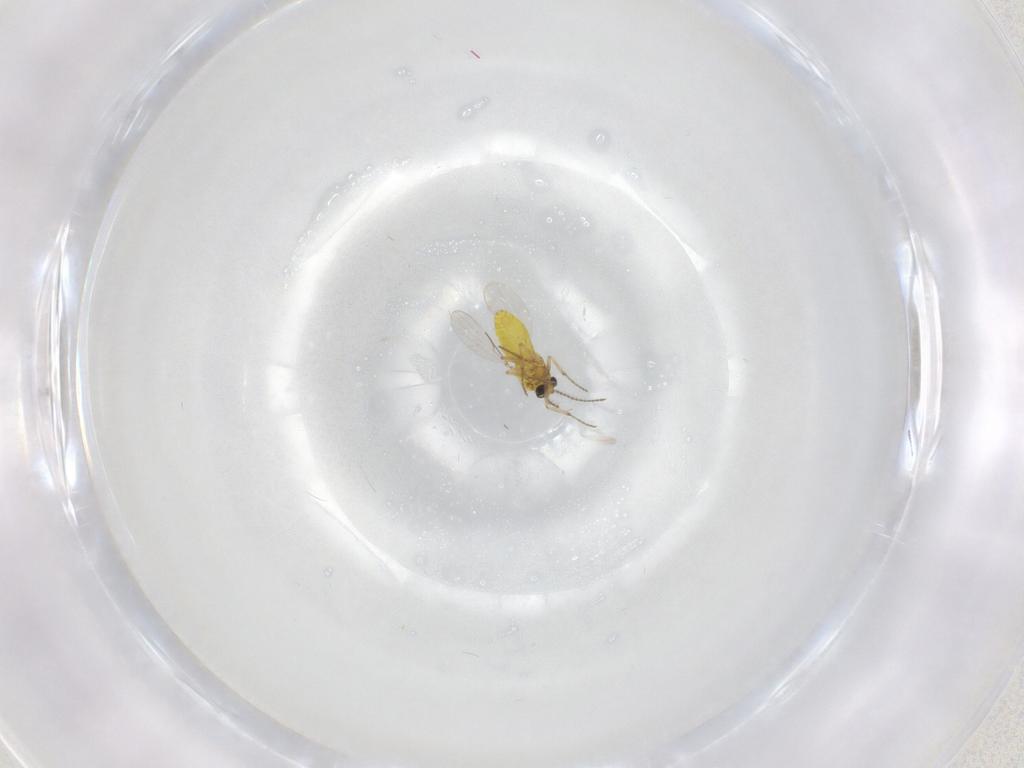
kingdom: Animalia
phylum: Arthropoda
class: Insecta
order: Diptera
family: Ceratopogonidae
